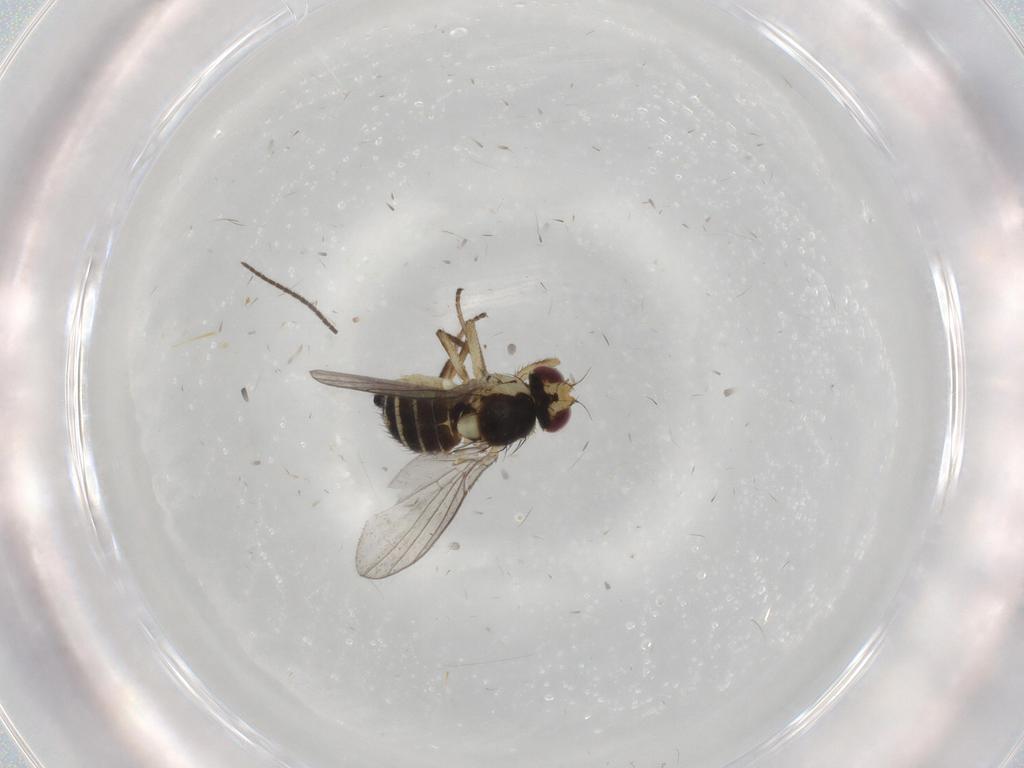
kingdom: Animalia
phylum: Arthropoda
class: Insecta
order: Diptera
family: Agromyzidae
